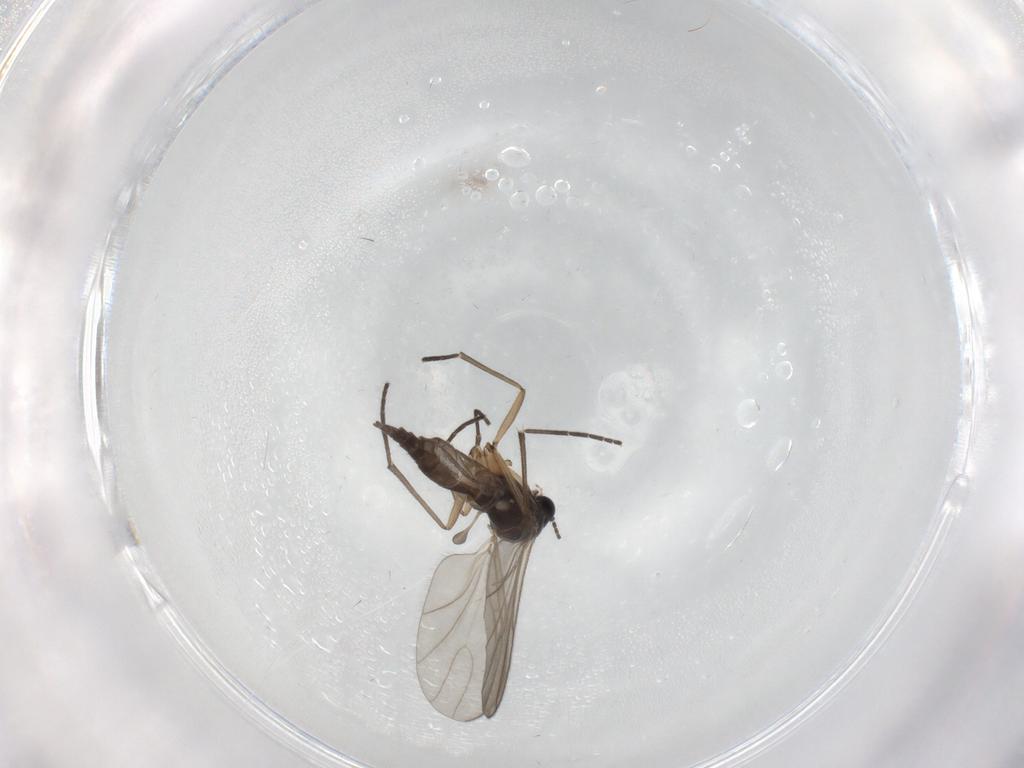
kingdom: Animalia
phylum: Arthropoda
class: Insecta
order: Diptera
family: Sciaridae
